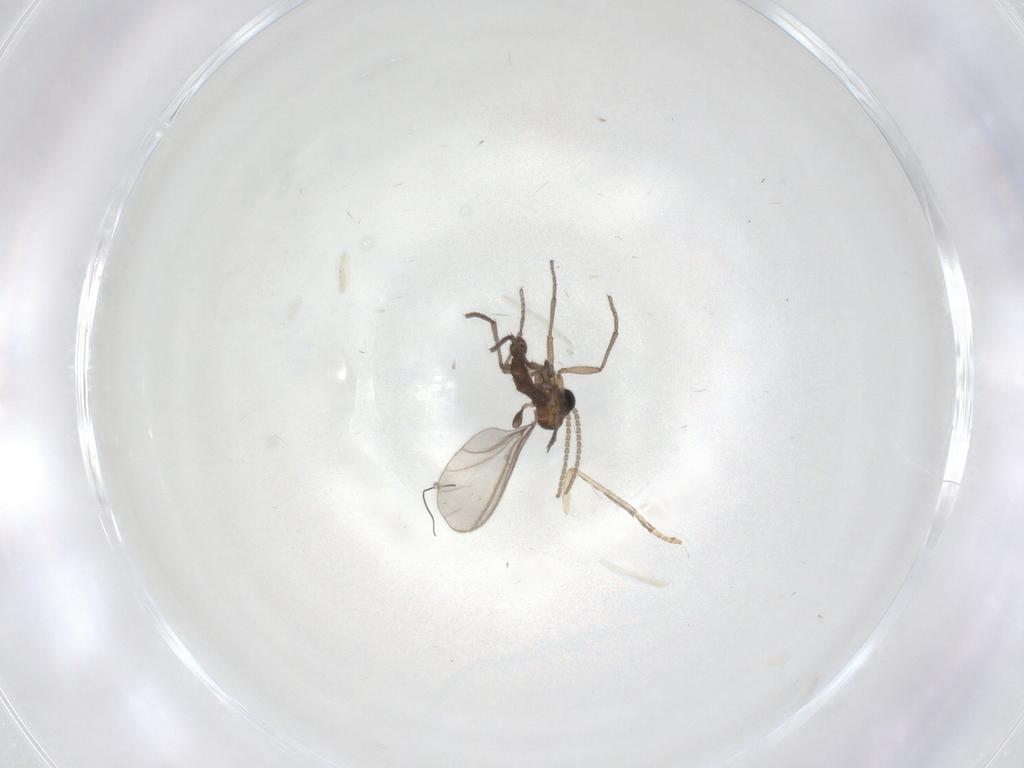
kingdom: Animalia
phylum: Arthropoda
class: Insecta
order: Diptera
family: Sciaridae
